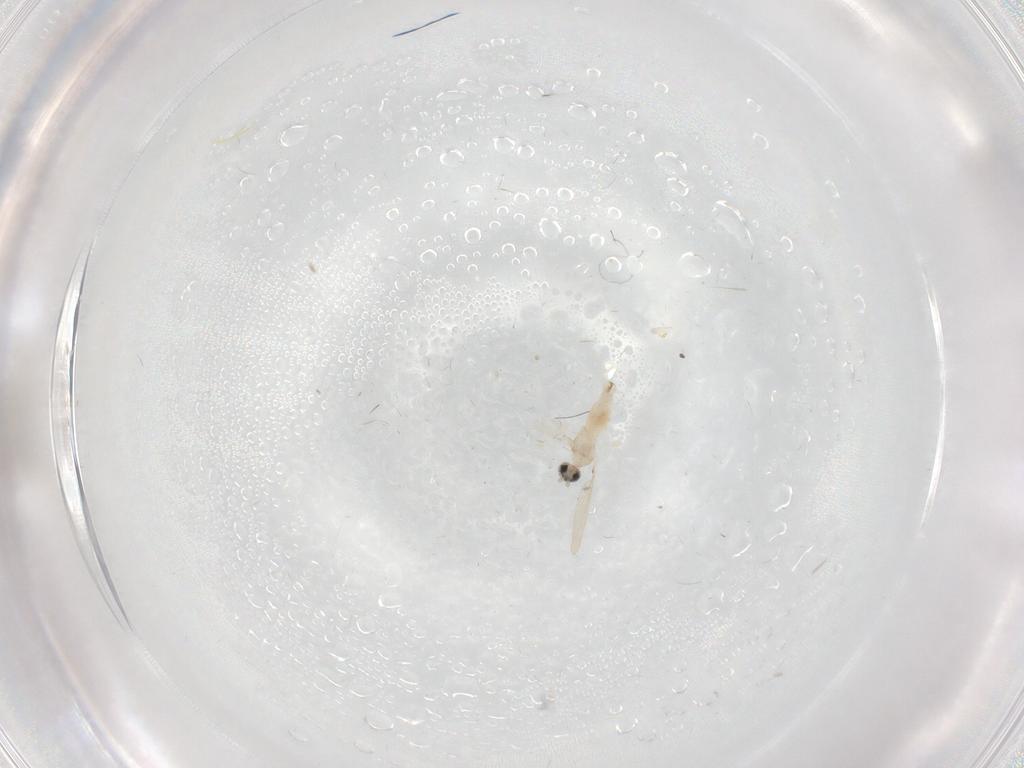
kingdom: Animalia
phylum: Arthropoda
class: Insecta
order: Diptera
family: Cecidomyiidae
